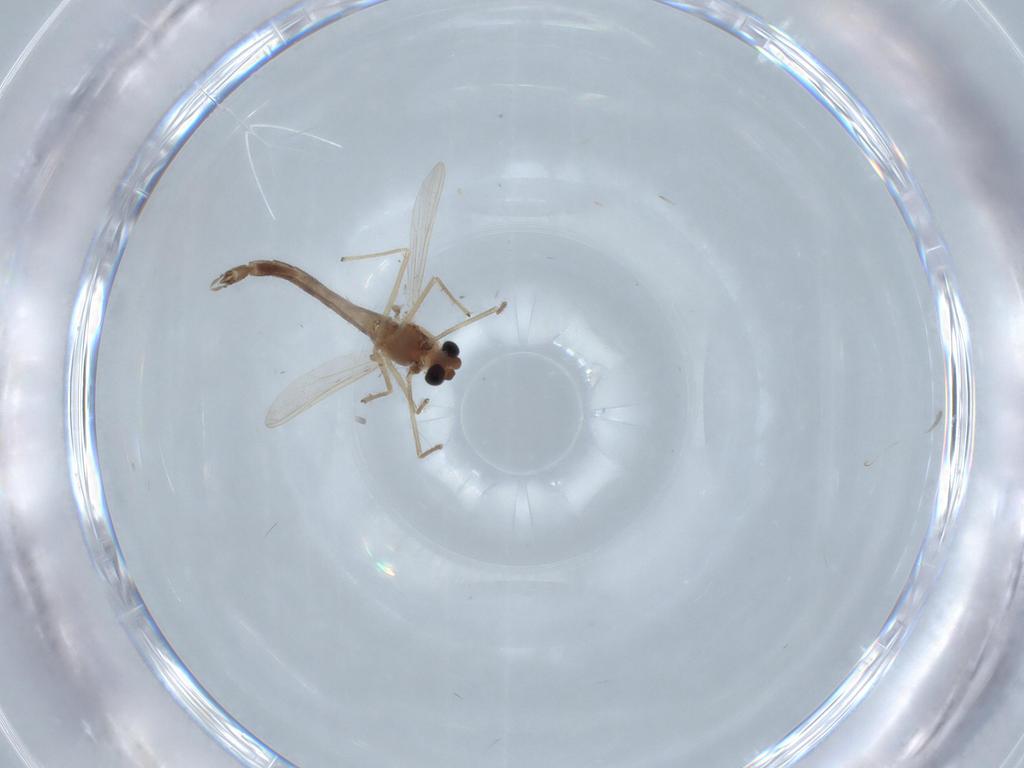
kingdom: Animalia
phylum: Arthropoda
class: Insecta
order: Diptera
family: Chironomidae
